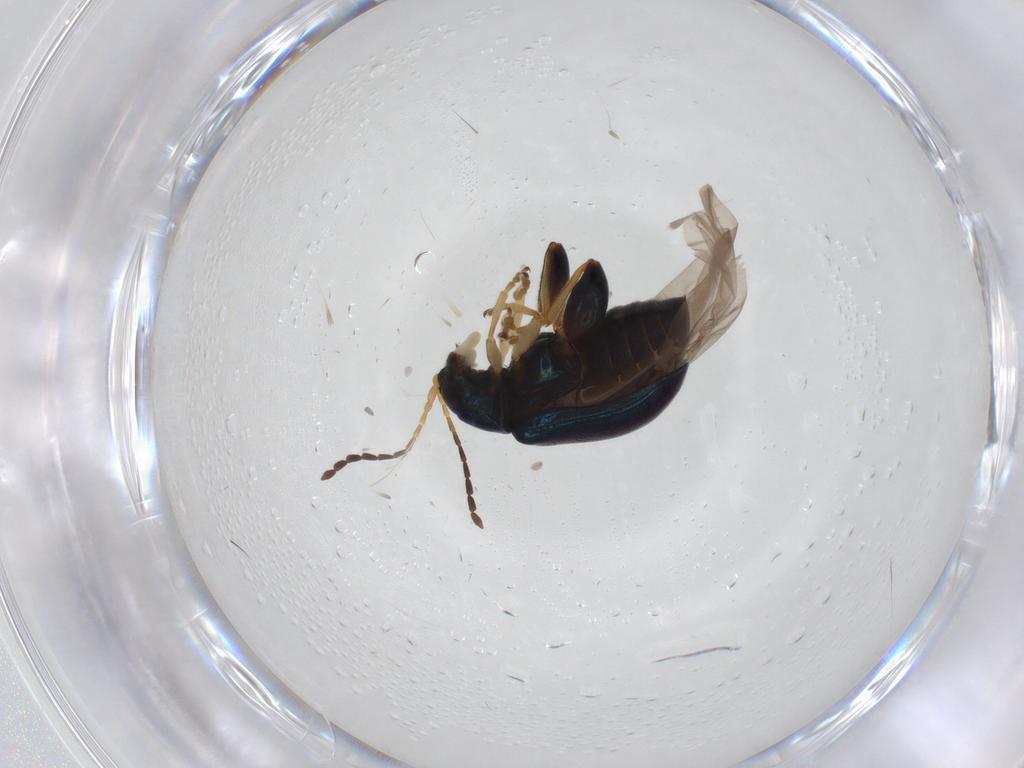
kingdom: Animalia
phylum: Arthropoda
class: Insecta
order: Coleoptera
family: Chrysomelidae
